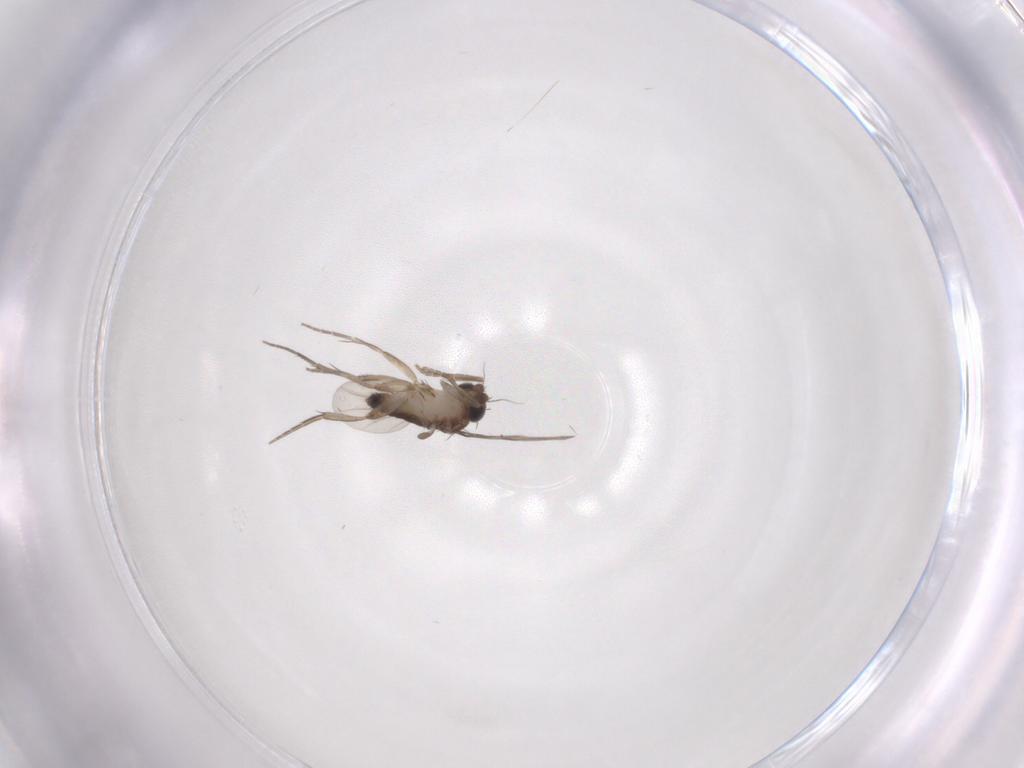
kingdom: Animalia
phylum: Arthropoda
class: Insecta
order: Diptera
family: Phoridae
